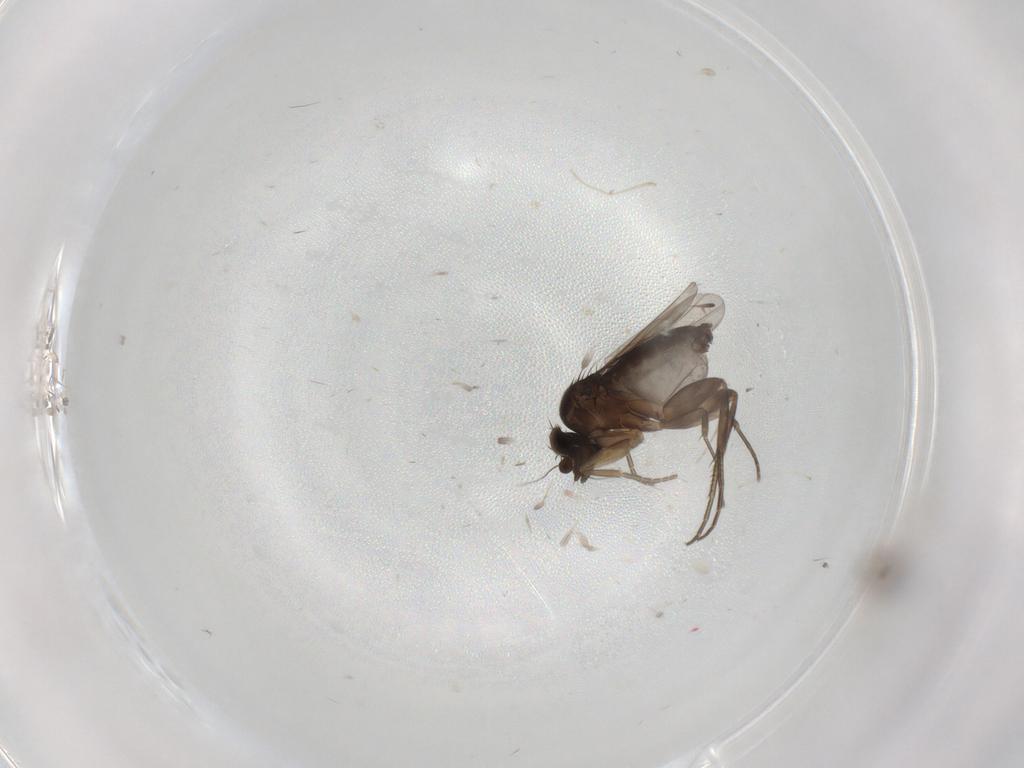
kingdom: Animalia
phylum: Arthropoda
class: Insecta
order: Diptera
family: Phoridae
